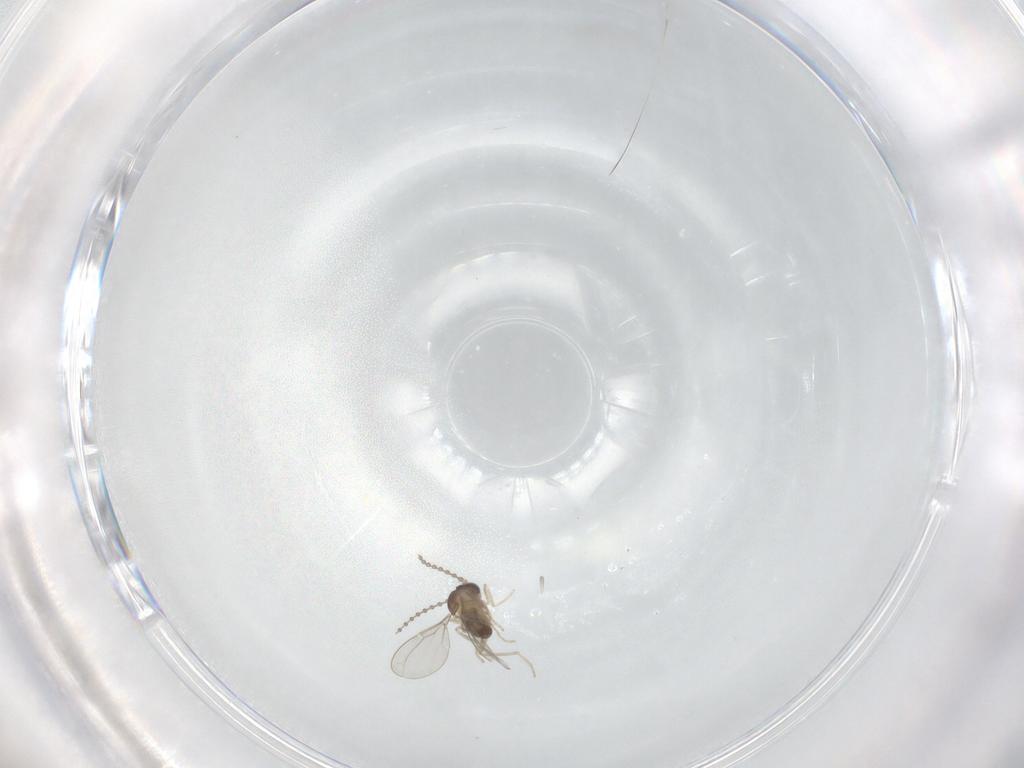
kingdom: Animalia
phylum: Arthropoda
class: Insecta
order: Diptera
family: Cecidomyiidae
